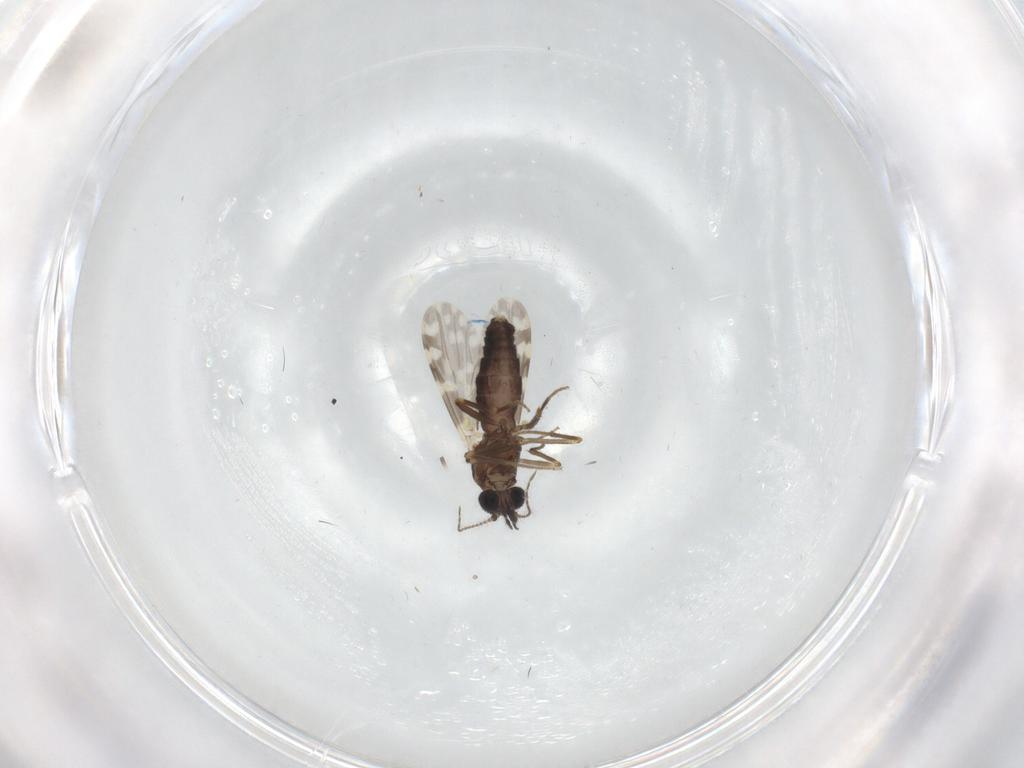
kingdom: Animalia
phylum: Arthropoda
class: Insecta
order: Diptera
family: Ceratopogonidae
